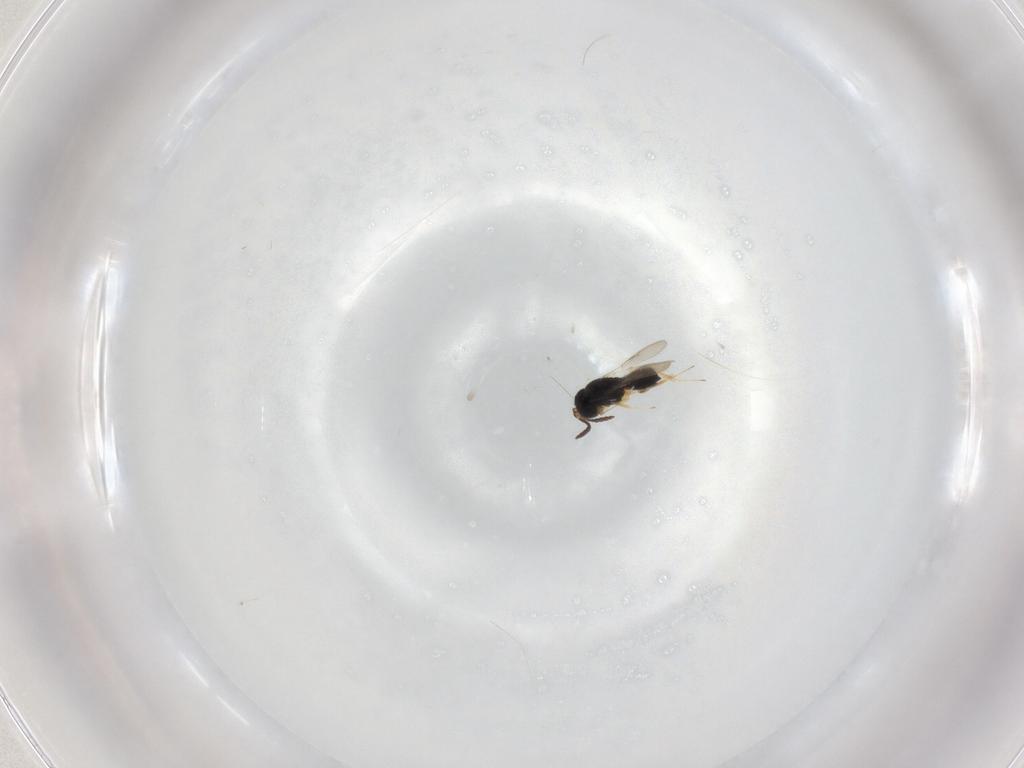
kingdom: Animalia
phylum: Arthropoda
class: Insecta
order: Hymenoptera
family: Scelionidae
